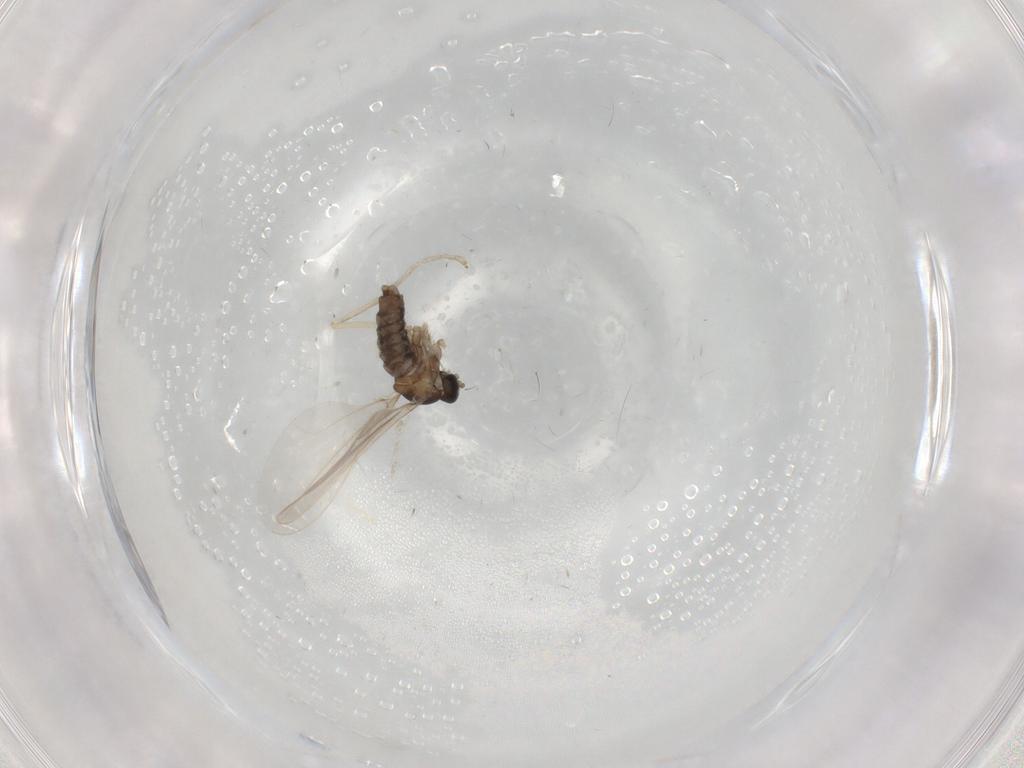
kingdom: Animalia
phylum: Arthropoda
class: Insecta
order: Diptera
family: Cecidomyiidae
